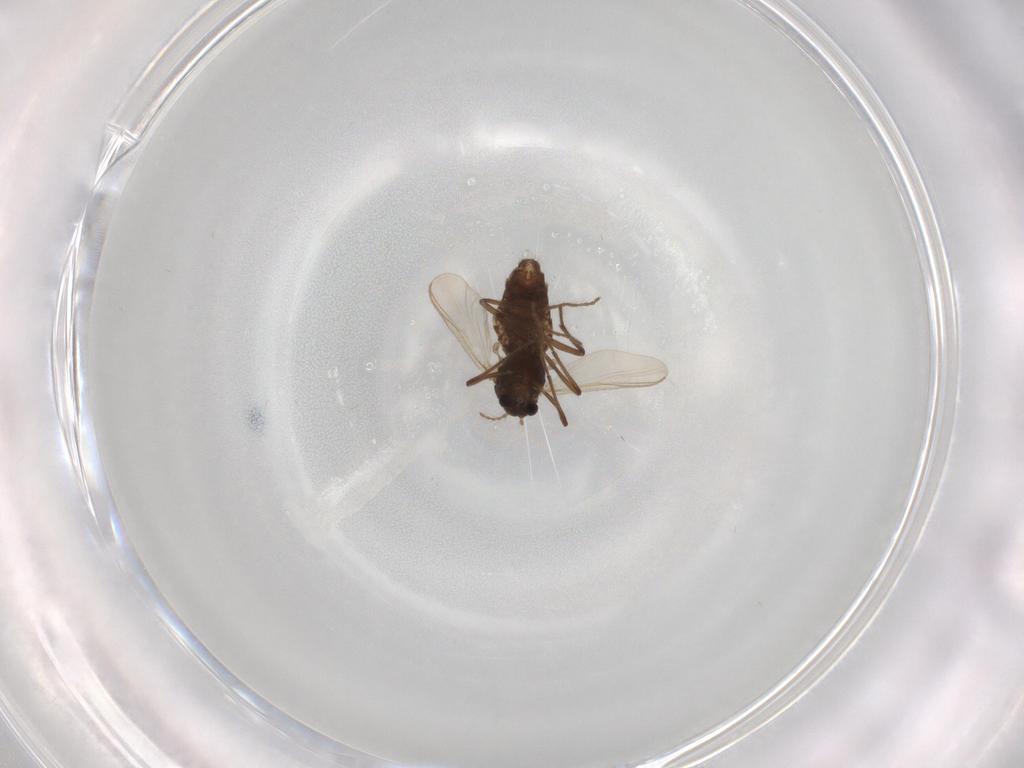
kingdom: Animalia
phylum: Arthropoda
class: Insecta
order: Diptera
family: Chironomidae
